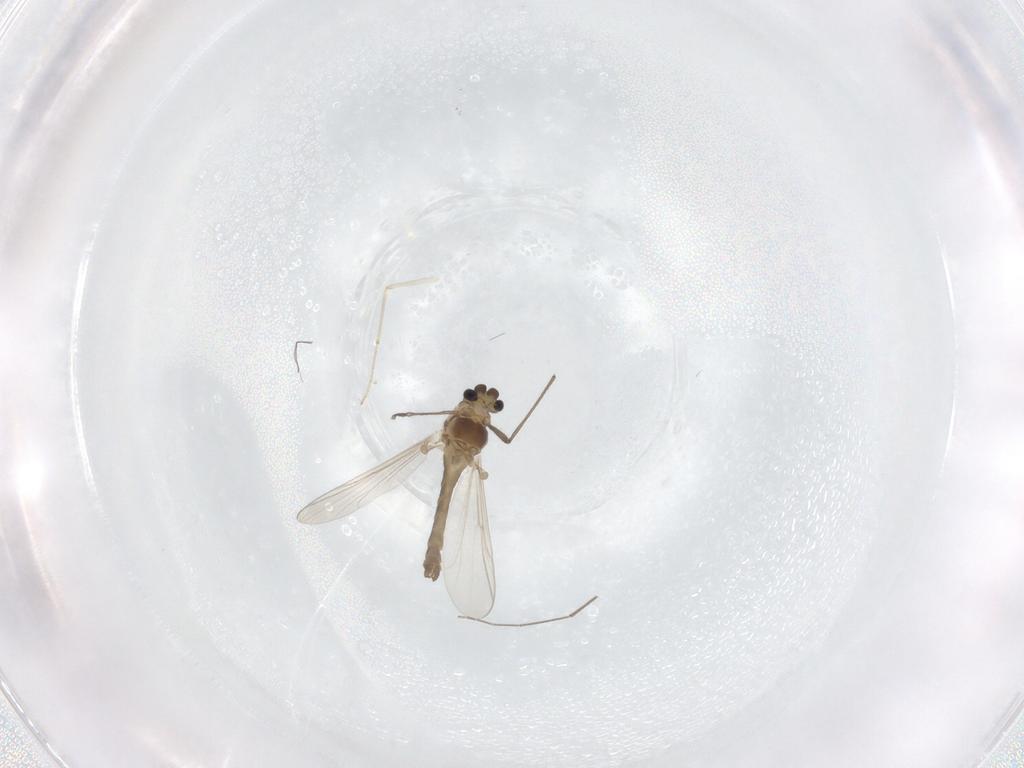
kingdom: Animalia
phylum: Arthropoda
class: Insecta
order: Diptera
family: Chironomidae
